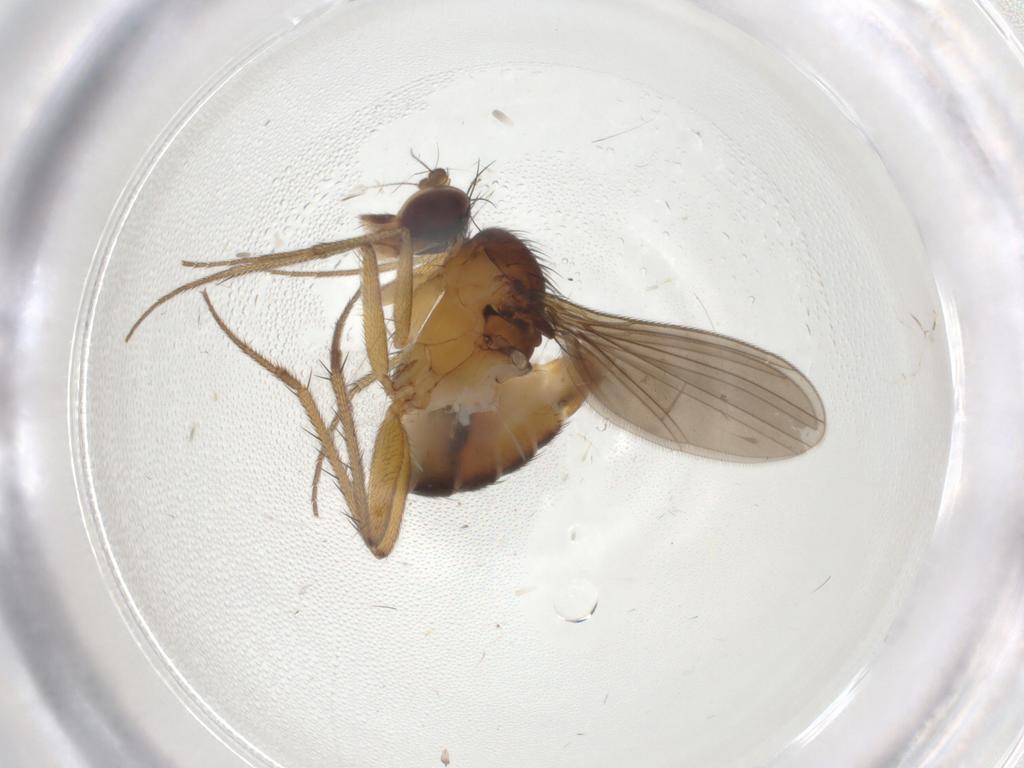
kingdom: Animalia
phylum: Arthropoda
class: Insecta
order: Diptera
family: Dolichopodidae
